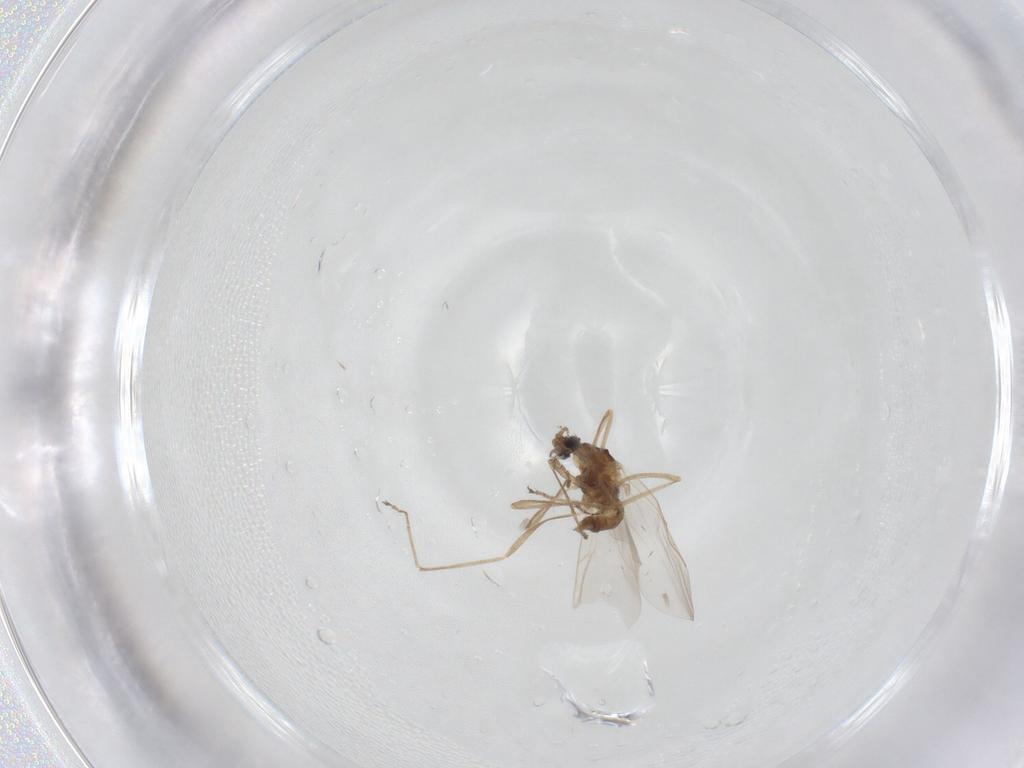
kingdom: Animalia
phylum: Arthropoda
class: Insecta
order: Diptera
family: Cecidomyiidae
